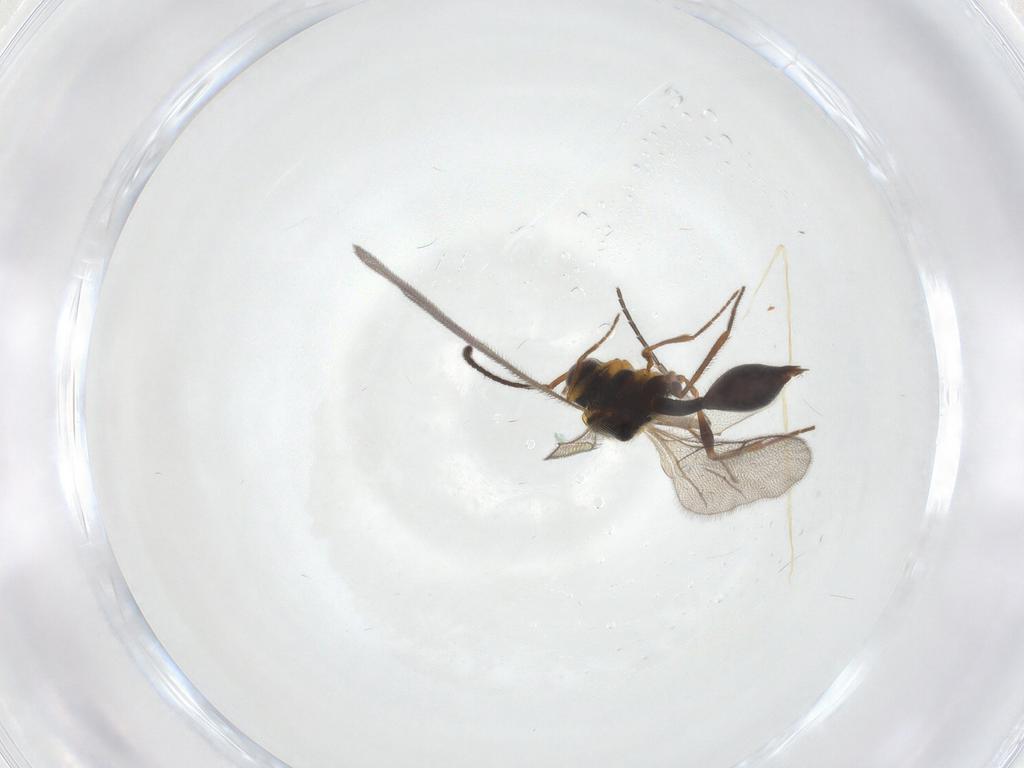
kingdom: Animalia
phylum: Arthropoda
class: Insecta
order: Hymenoptera
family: Diapriidae
